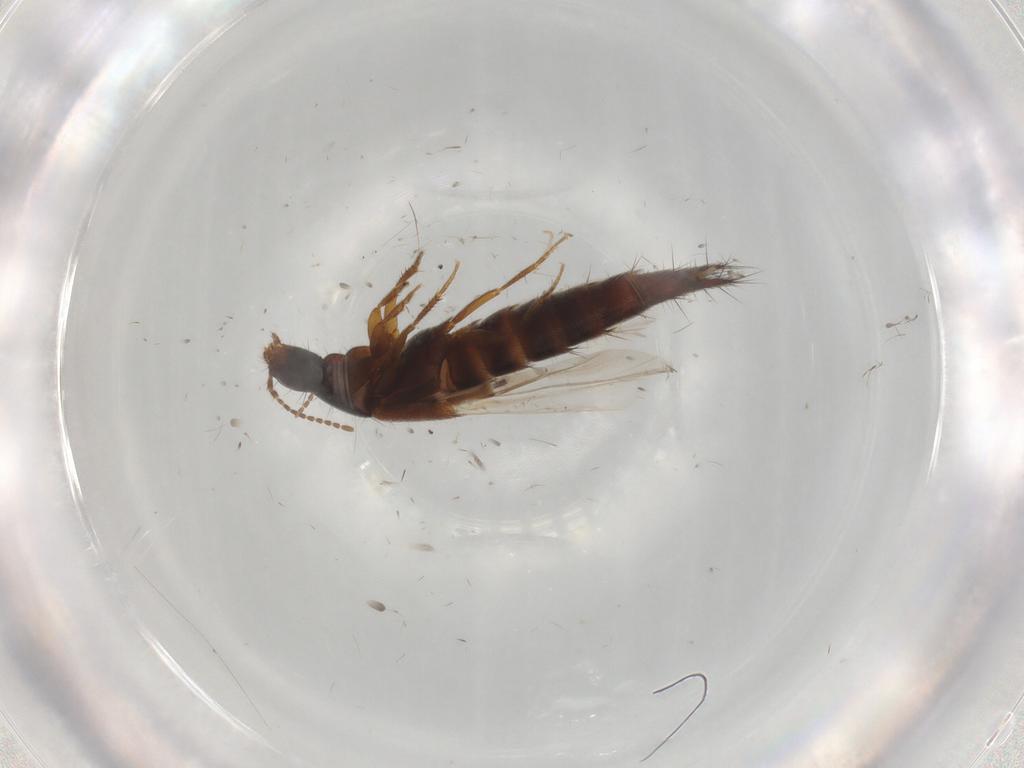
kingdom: Animalia
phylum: Arthropoda
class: Insecta
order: Coleoptera
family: Staphylinidae
